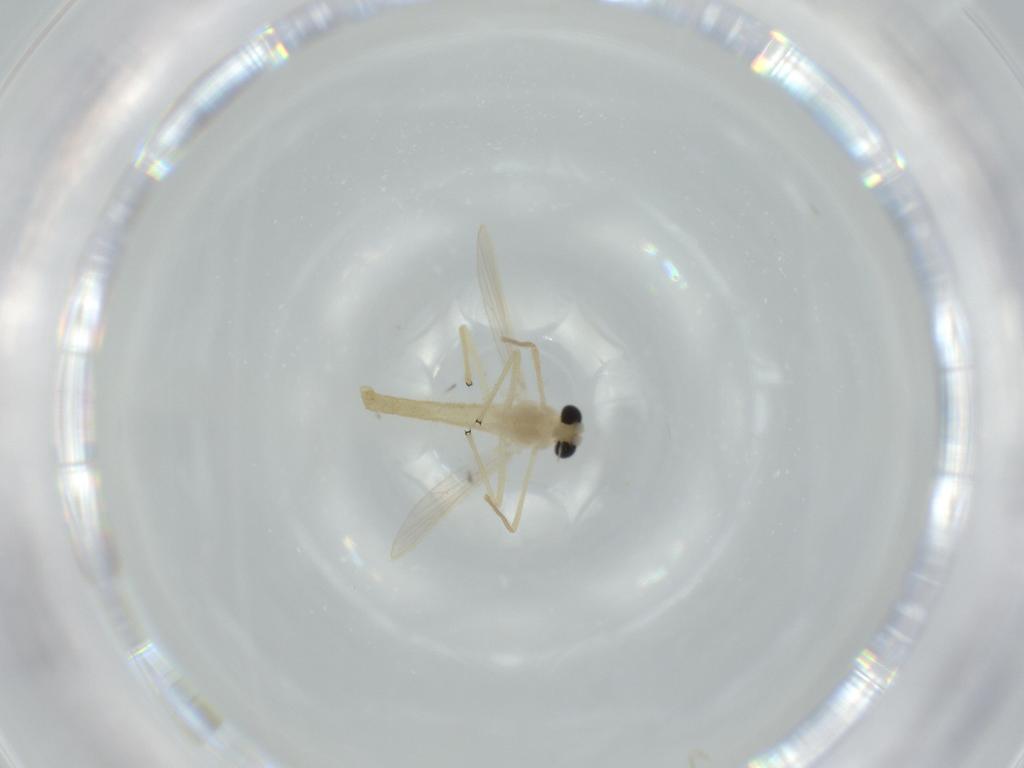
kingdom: Animalia
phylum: Arthropoda
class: Insecta
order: Diptera
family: Chironomidae
